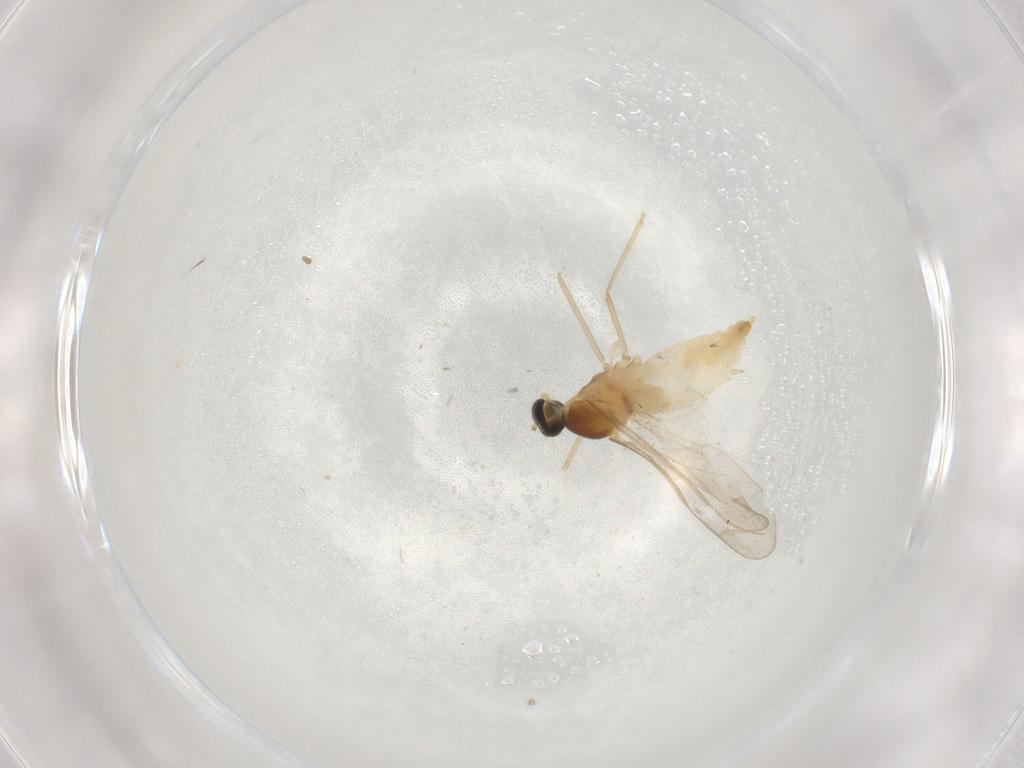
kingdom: Animalia
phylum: Arthropoda
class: Insecta
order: Diptera
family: Cecidomyiidae
